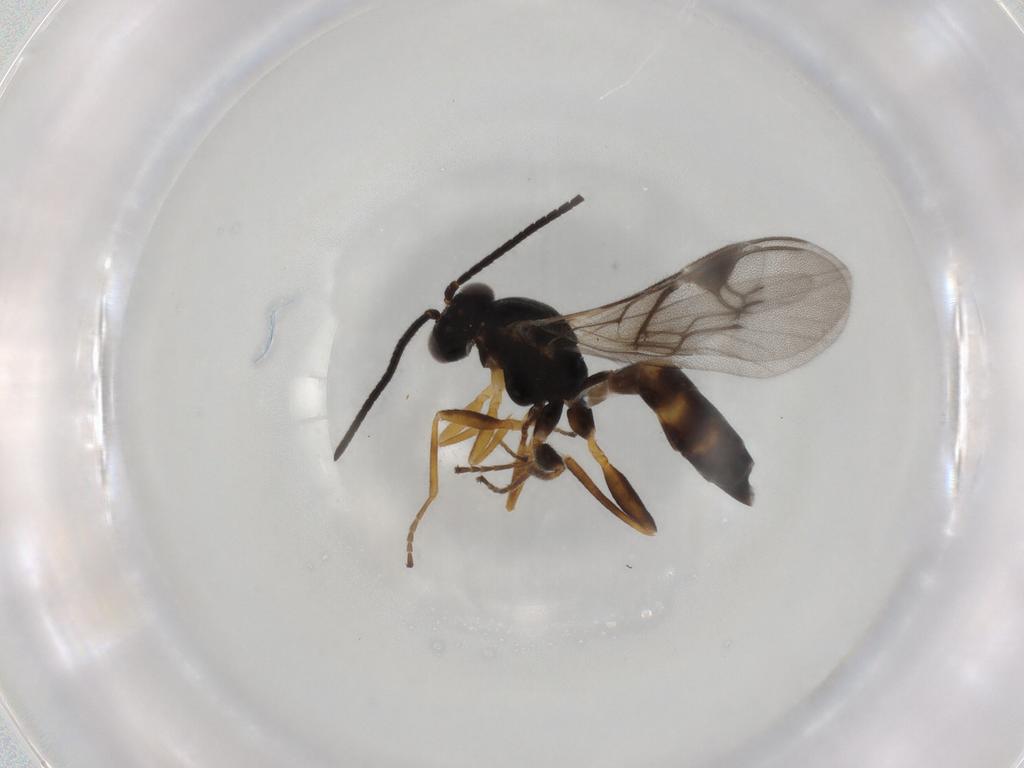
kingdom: Animalia
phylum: Arthropoda
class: Insecta
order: Hymenoptera
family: Braconidae
